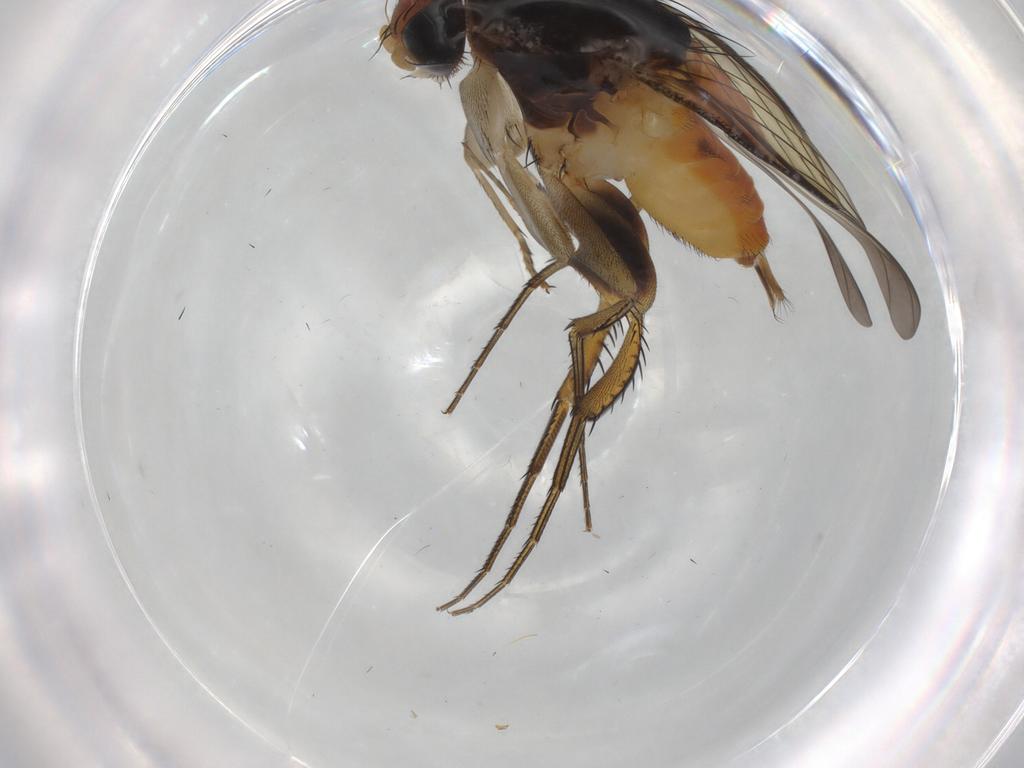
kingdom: Animalia
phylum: Arthropoda
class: Insecta
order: Diptera
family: Phoridae
